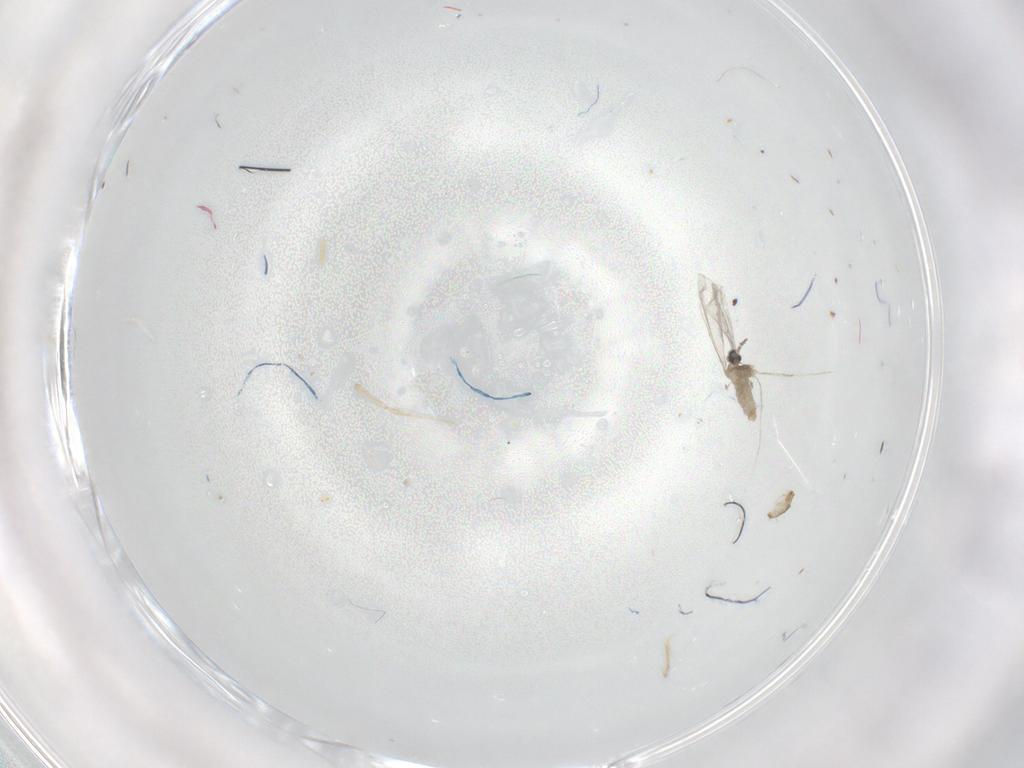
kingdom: Animalia
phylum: Arthropoda
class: Insecta
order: Diptera
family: Cecidomyiidae
